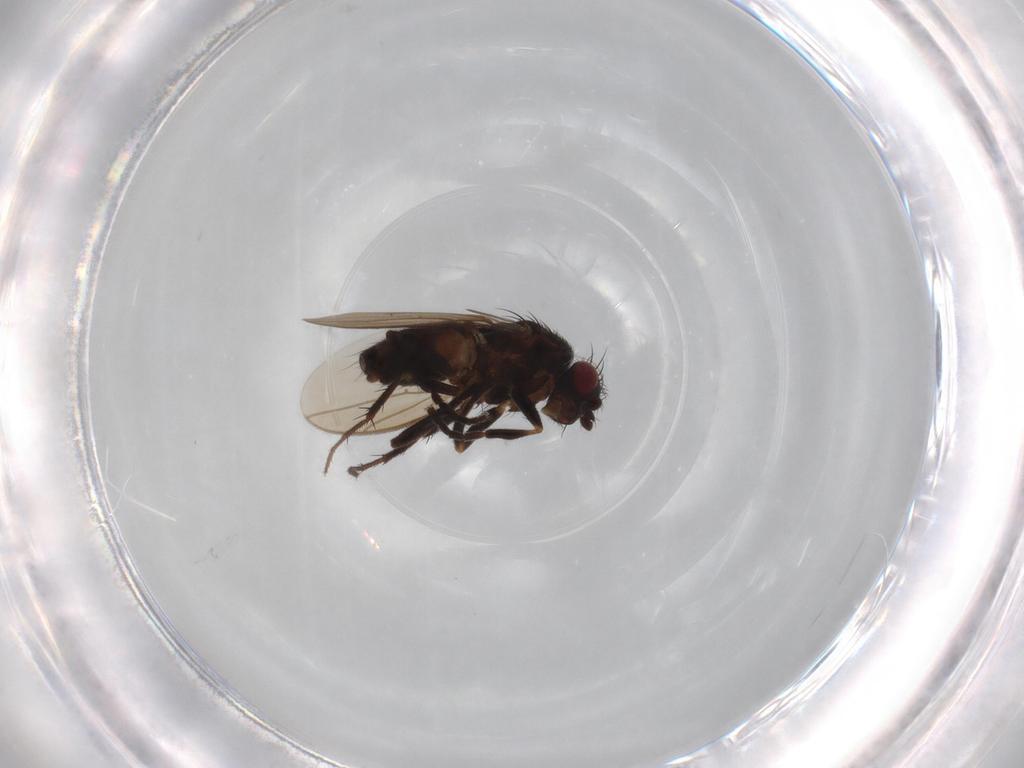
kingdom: Animalia
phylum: Arthropoda
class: Insecta
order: Diptera
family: Sphaeroceridae
